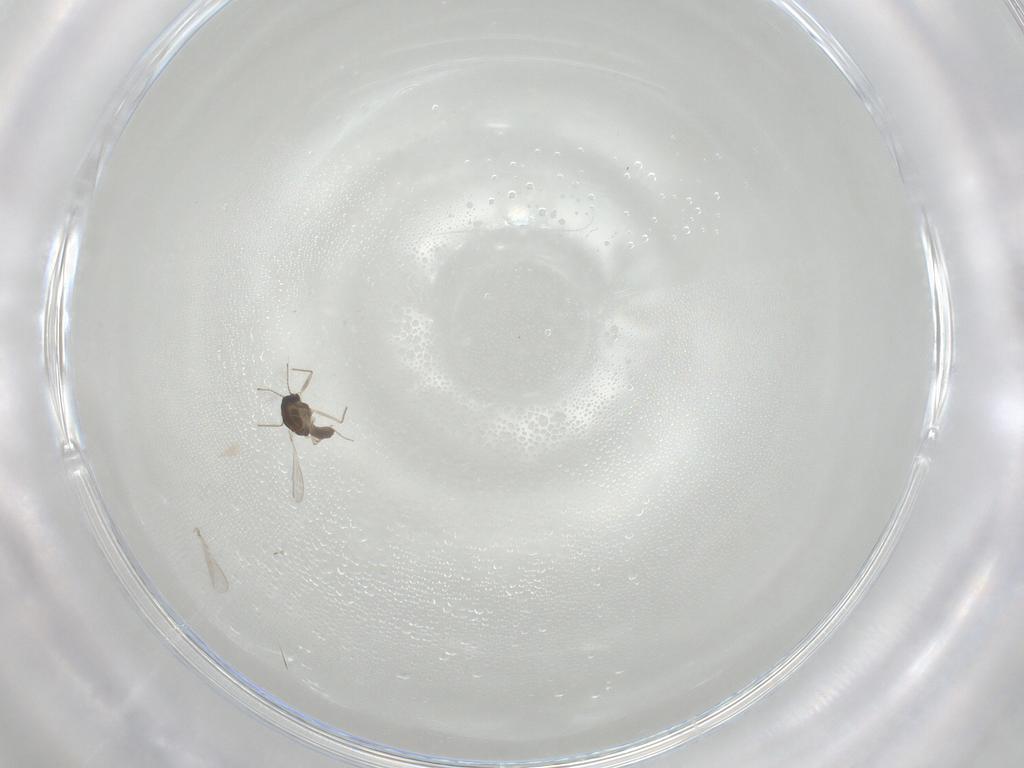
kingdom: Animalia
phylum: Arthropoda
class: Insecta
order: Diptera
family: Chironomidae
